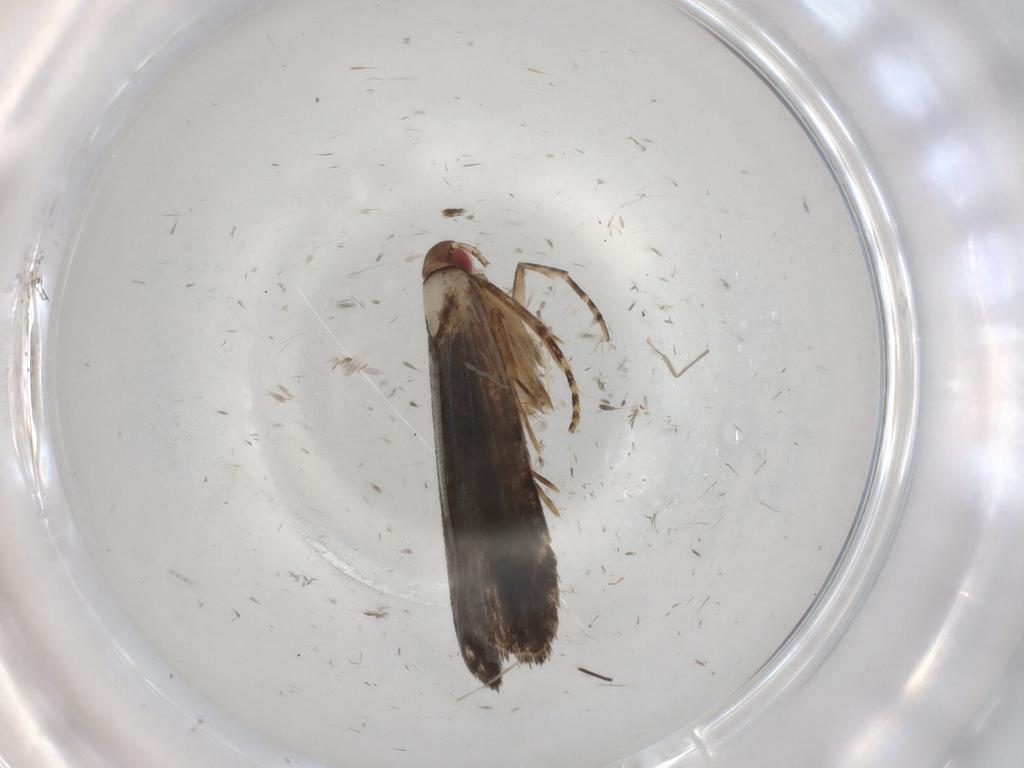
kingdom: Animalia
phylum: Arthropoda
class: Insecta
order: Lepidoptera
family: Gelechiidae
